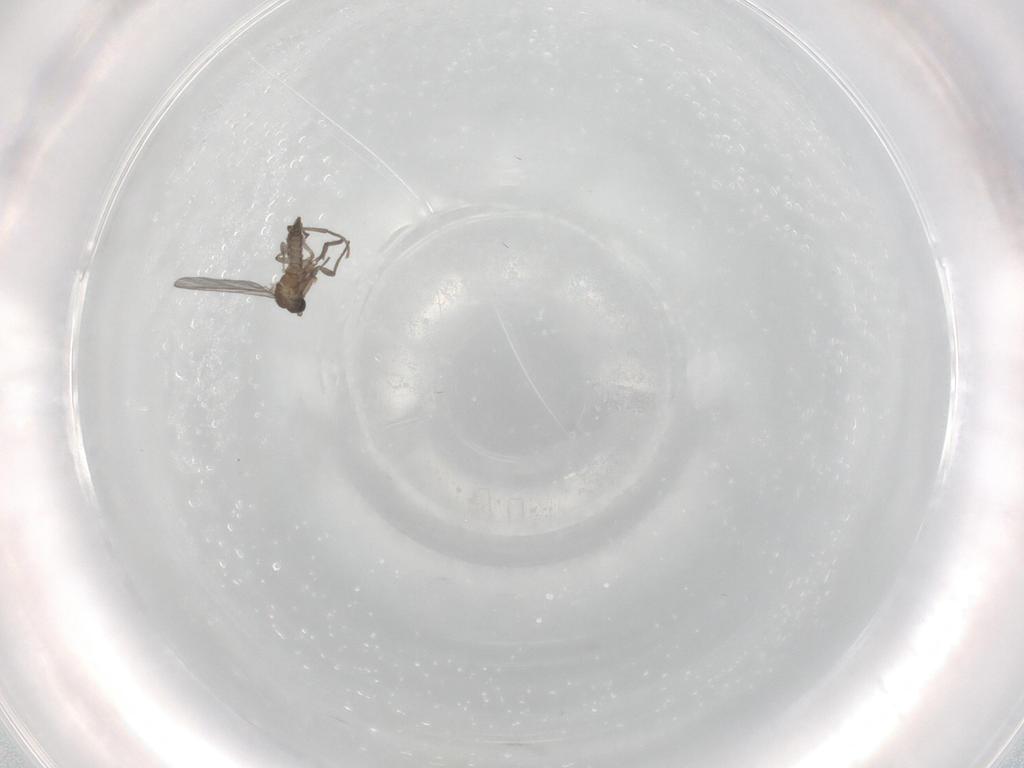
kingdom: Animalia
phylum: Arthropoda
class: Insecta
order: Diptera
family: Sciaridae
